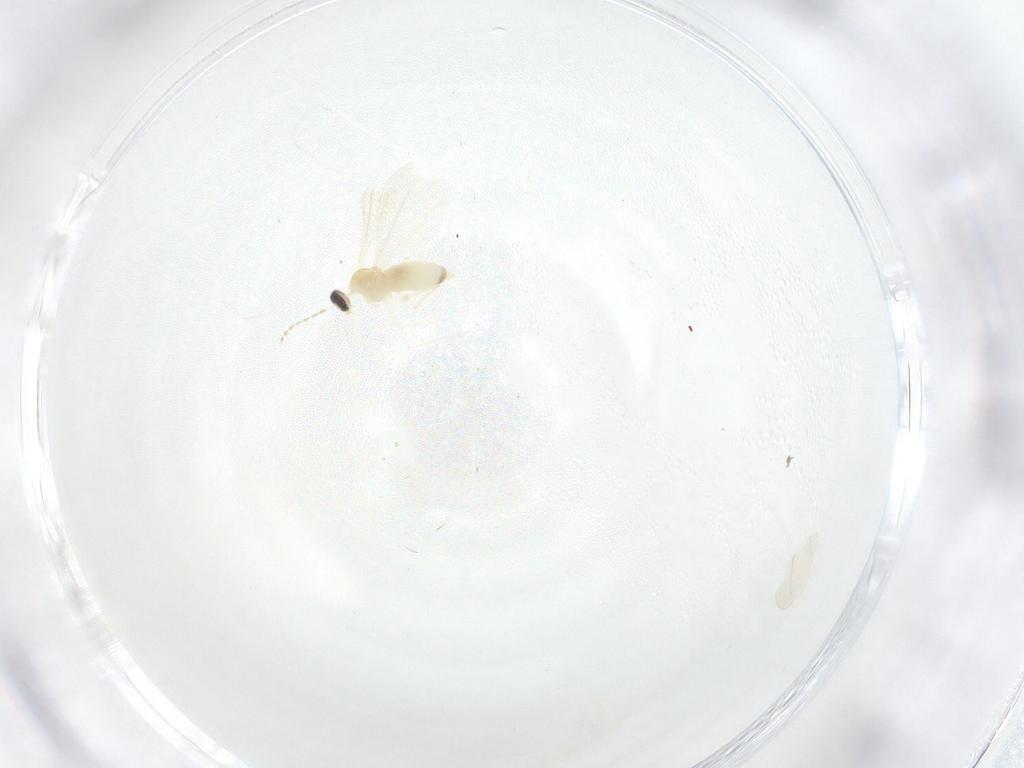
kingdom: Animalia
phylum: Arthropoda
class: Insecta
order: Diptera
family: Cecidomyiidae
